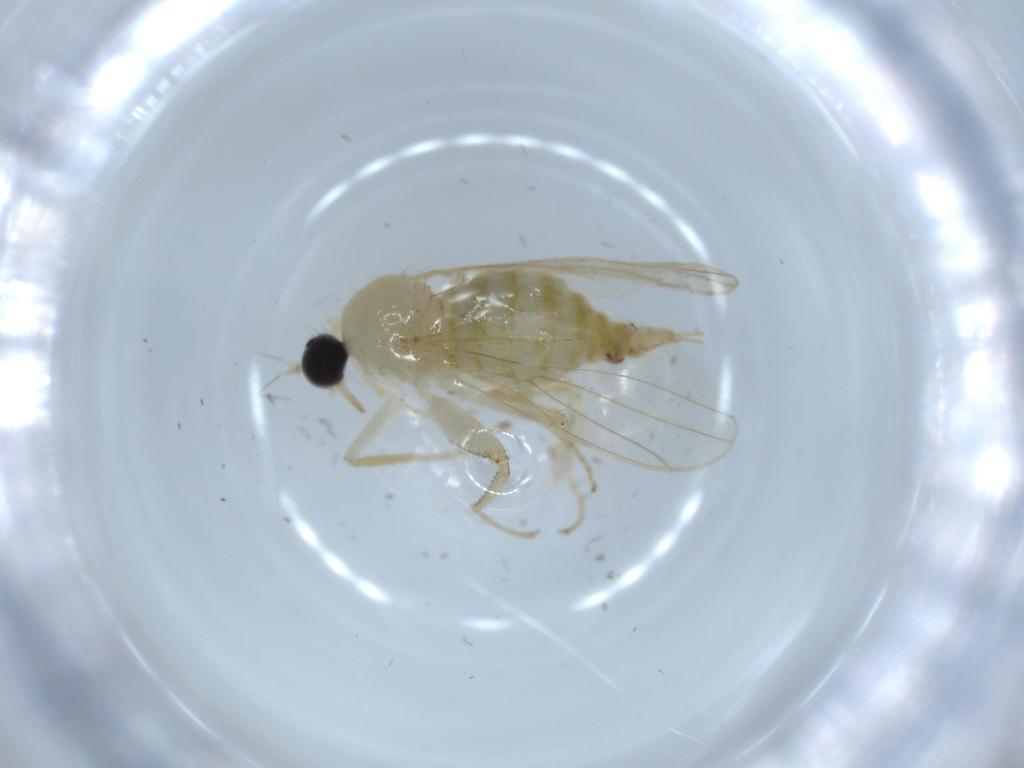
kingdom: Animalia
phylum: Arthropoda
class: Insecta
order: Diptera
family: Hybotidae
